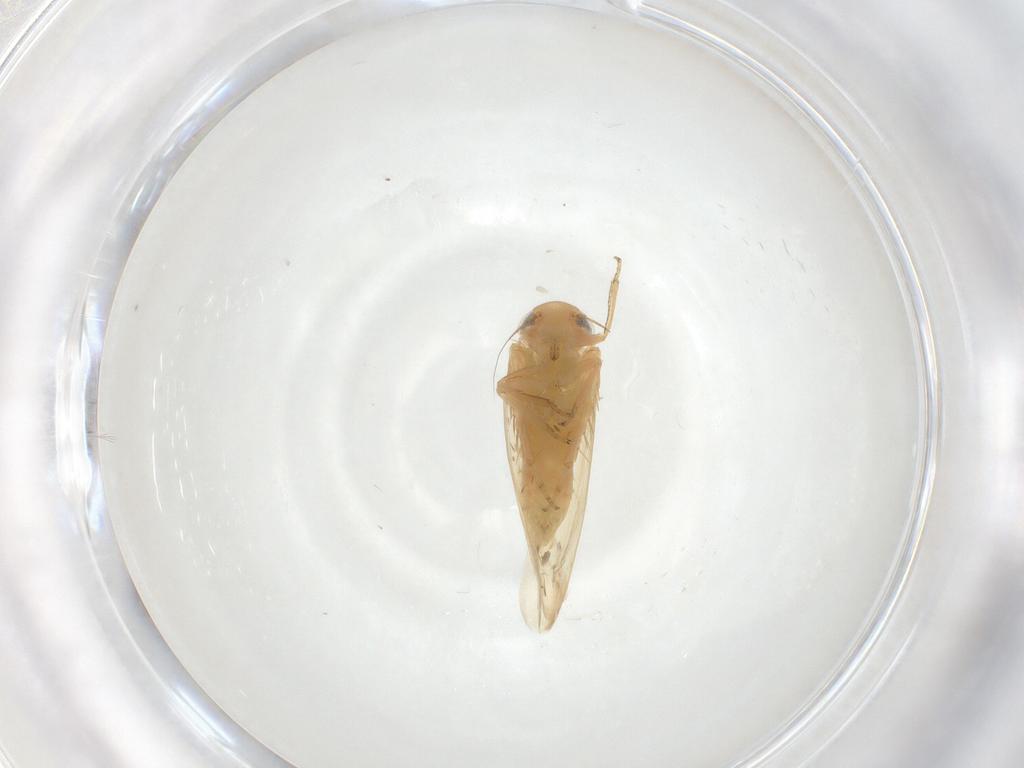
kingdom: Animalia
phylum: Arthropoda
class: Insecta
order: Hemiptera
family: Cicadellidae
